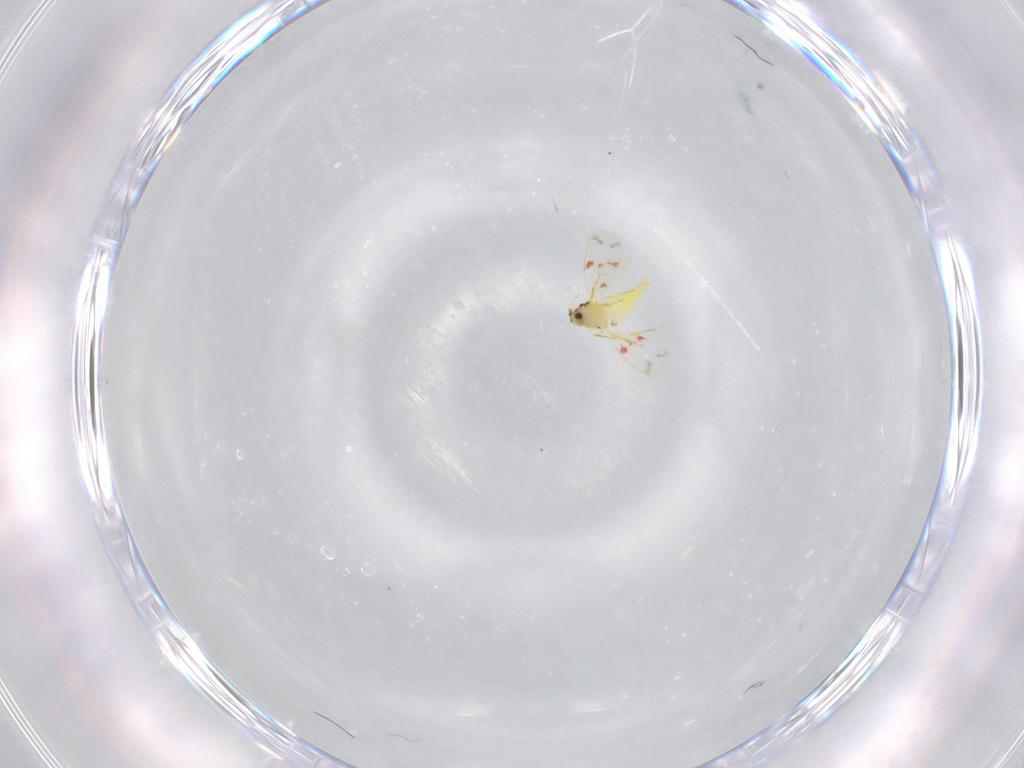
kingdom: Animalia
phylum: Arthropoda
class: Insecta
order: Hemiptera
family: Aleyrodidae
